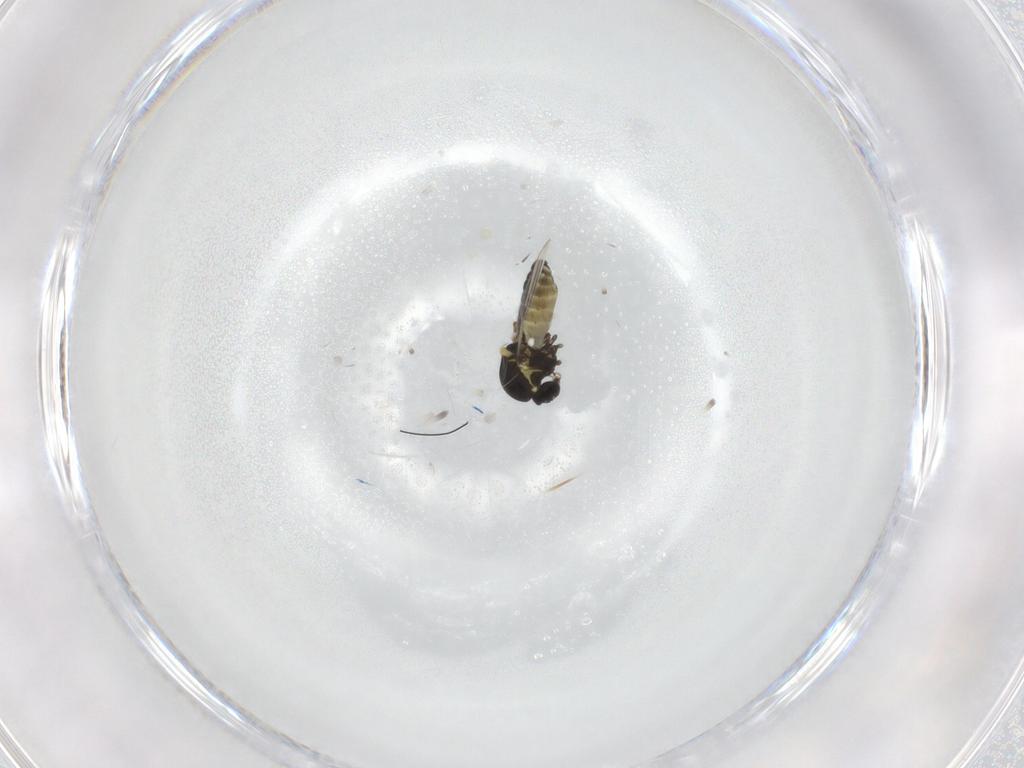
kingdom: Animalia
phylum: Arthropoda
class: Insecta
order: Diptera
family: Ceratopogonidae
